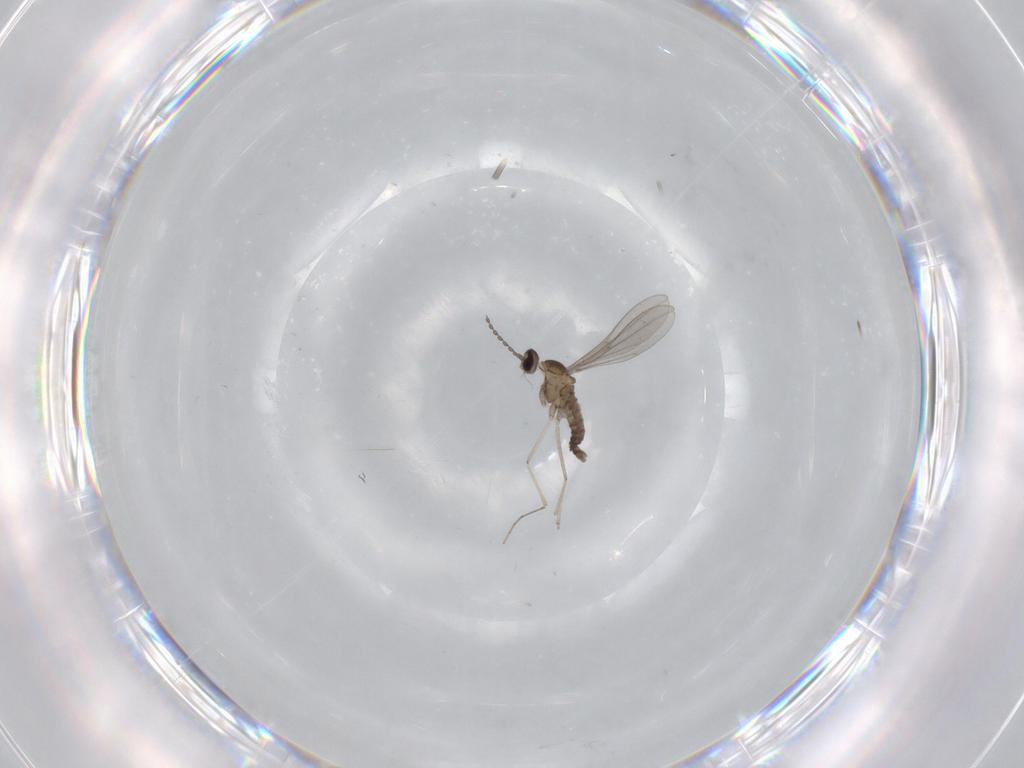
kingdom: Animalia
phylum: Arthropoda
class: Insecta
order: Diptera
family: Cecidomyiidae
